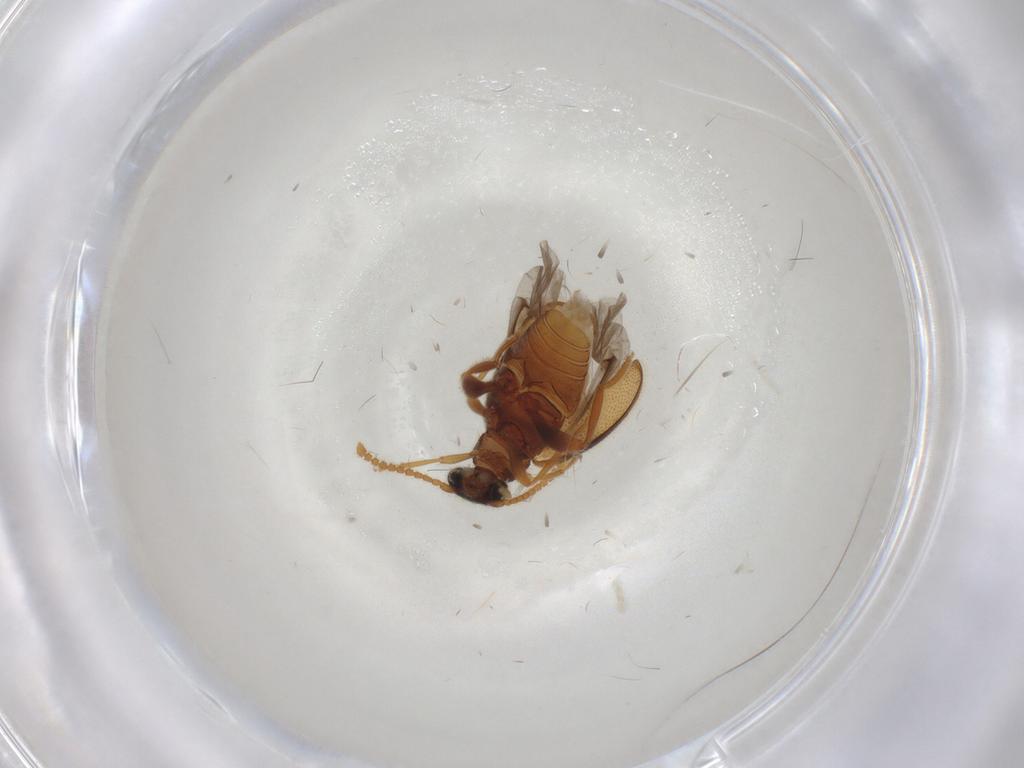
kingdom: Animalia
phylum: Arthropoda
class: Insecta
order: Coleoptera
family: Aderidae
